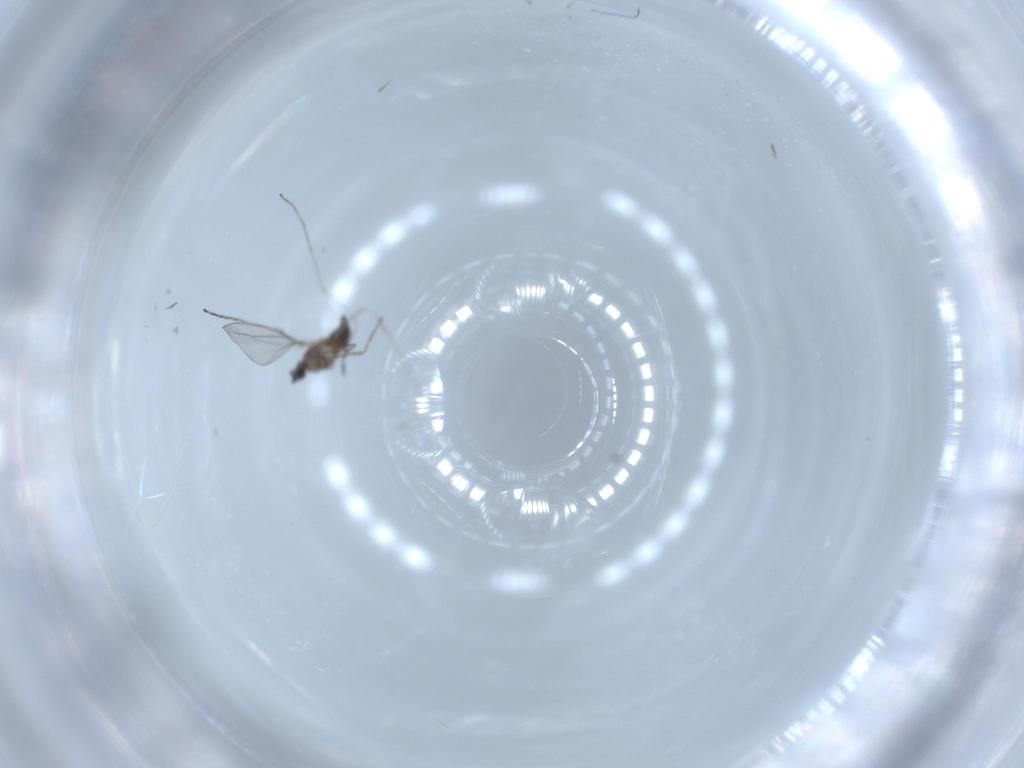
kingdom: Animalia
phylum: Arthropoda
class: Insecta
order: Diptera
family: Cecidomyiidae
